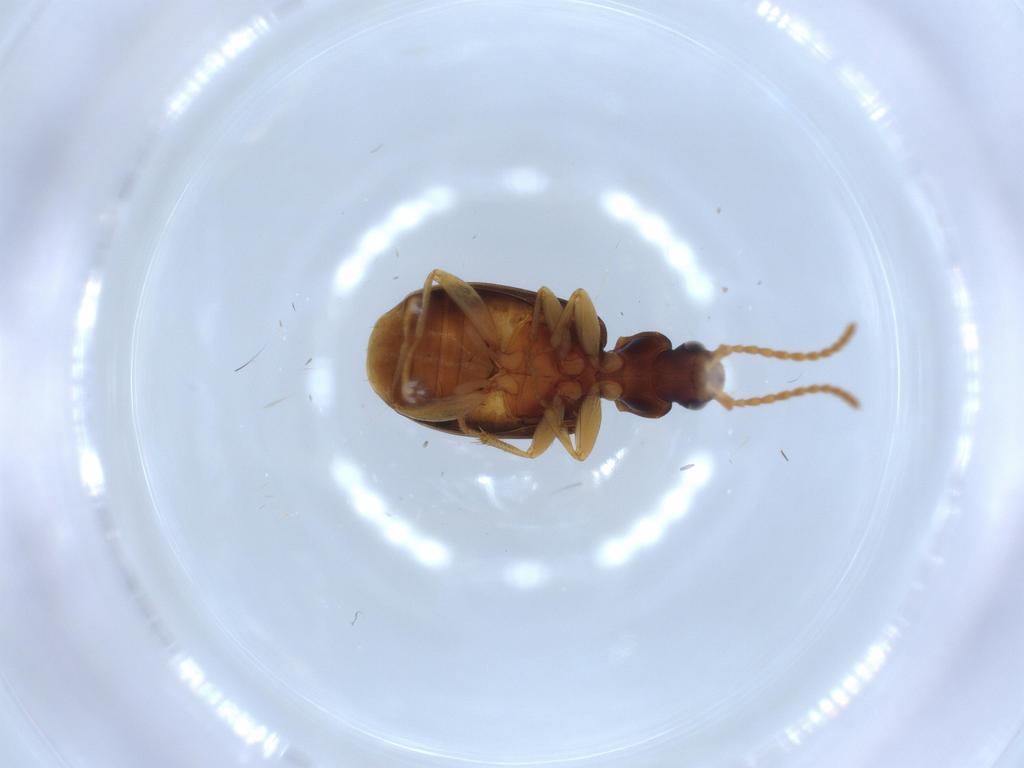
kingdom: Animalia
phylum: Arthropoda
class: Insecta
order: Coleoptera
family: Carabidae
